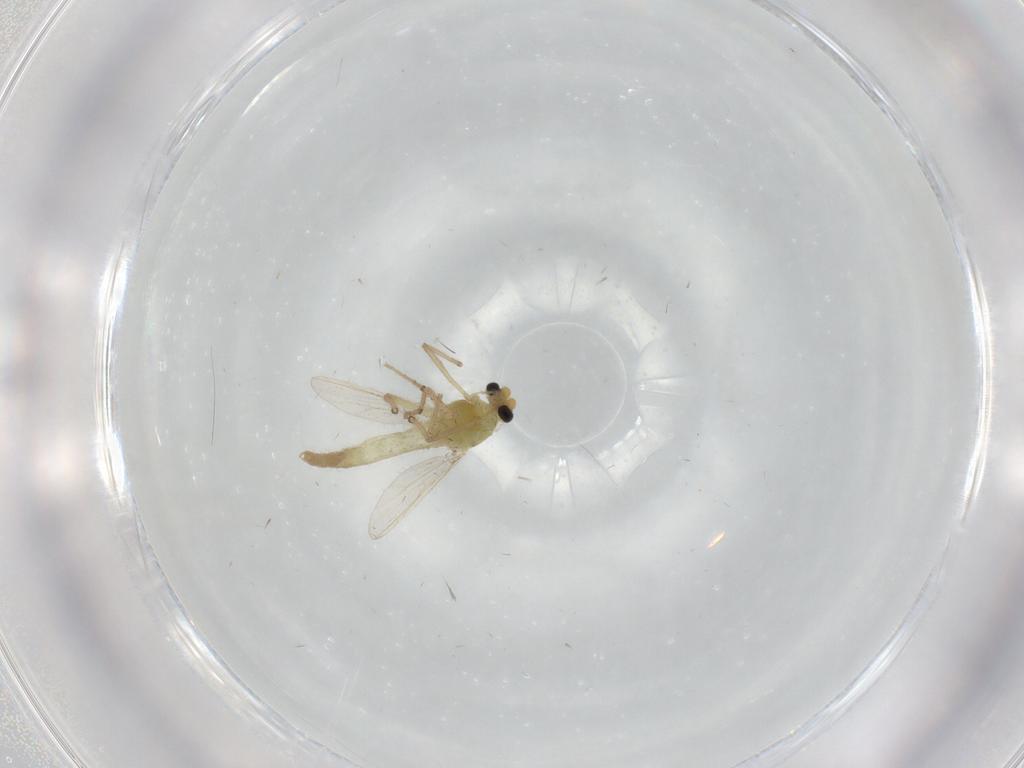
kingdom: Animalia
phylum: Arthropoda
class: Insecta
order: Diptera
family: Chironomidae
